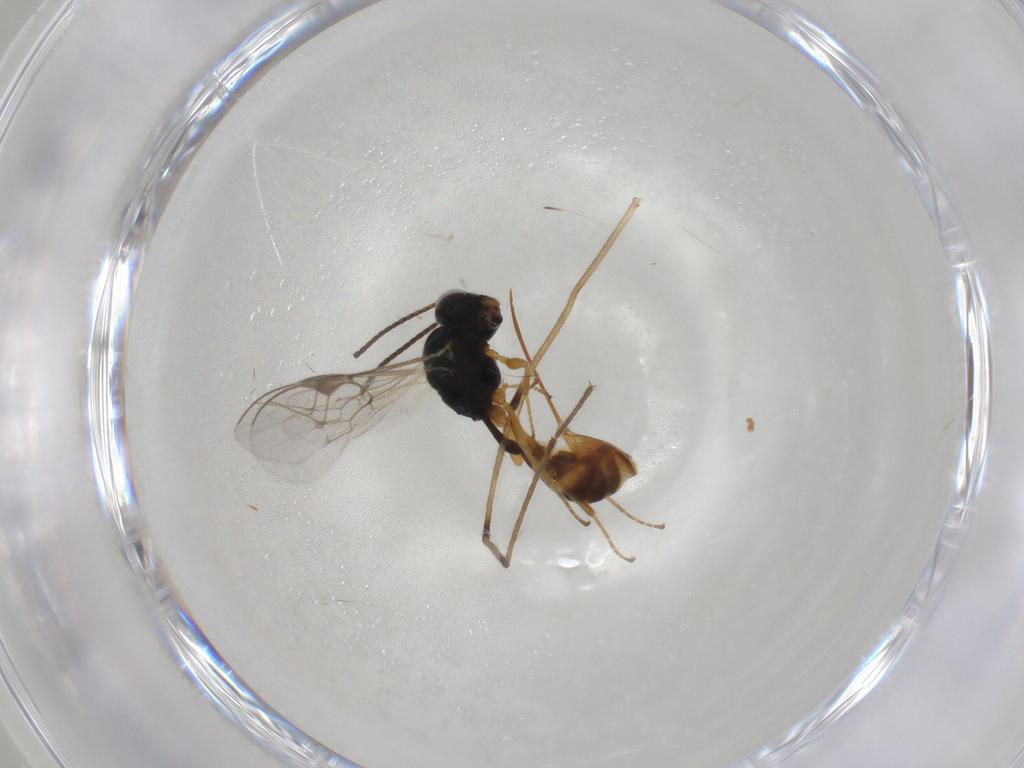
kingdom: Animalia
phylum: Arthropoda
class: Insecta
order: Hymenoptera
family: Ichneumonidae
